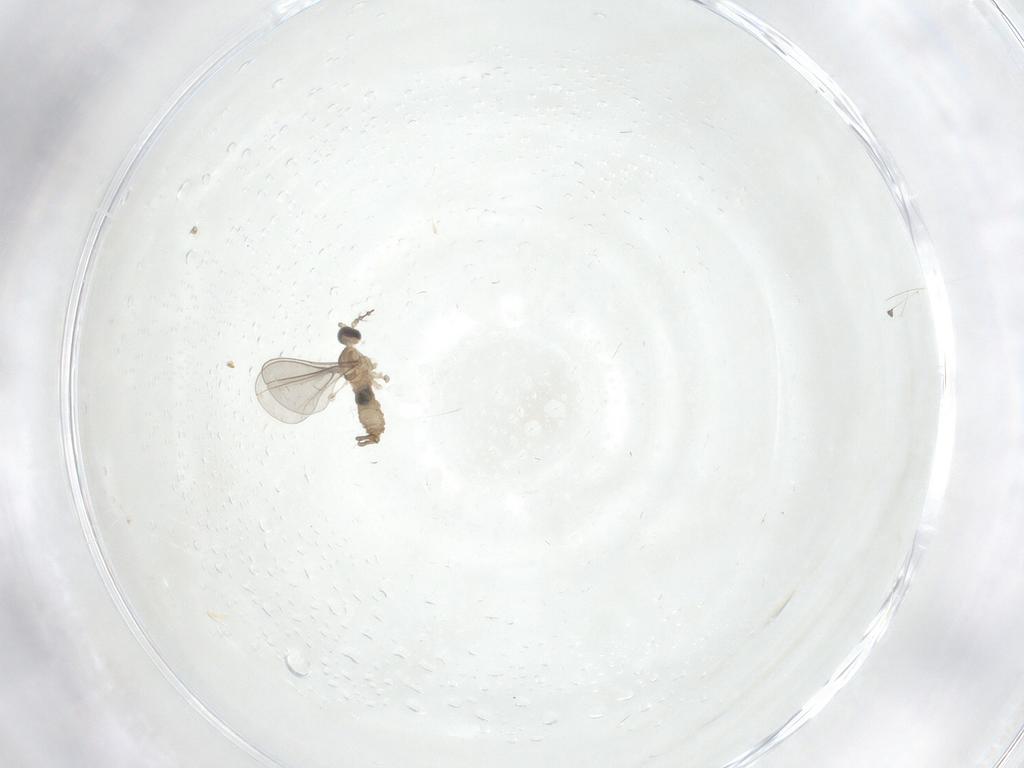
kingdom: Animalia
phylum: Arthropoda
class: Insecta
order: Diptera
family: Cecidomyiidae
